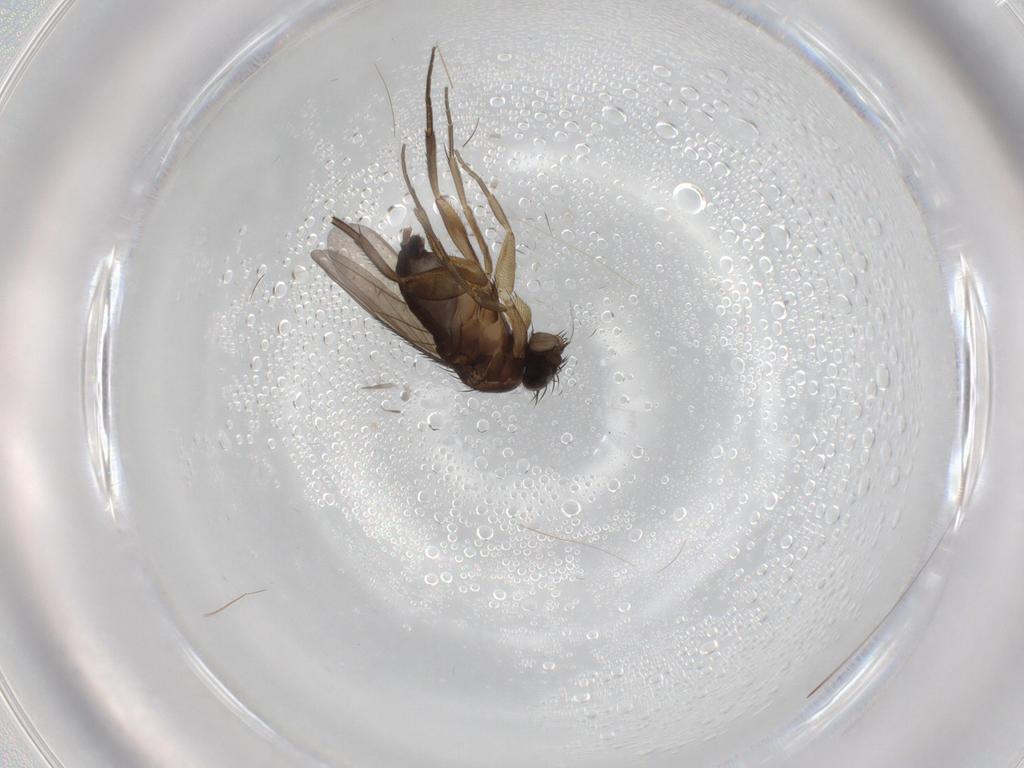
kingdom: Animalia
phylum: Arthropoda
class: Insecta
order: Diptera
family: Phoridae
